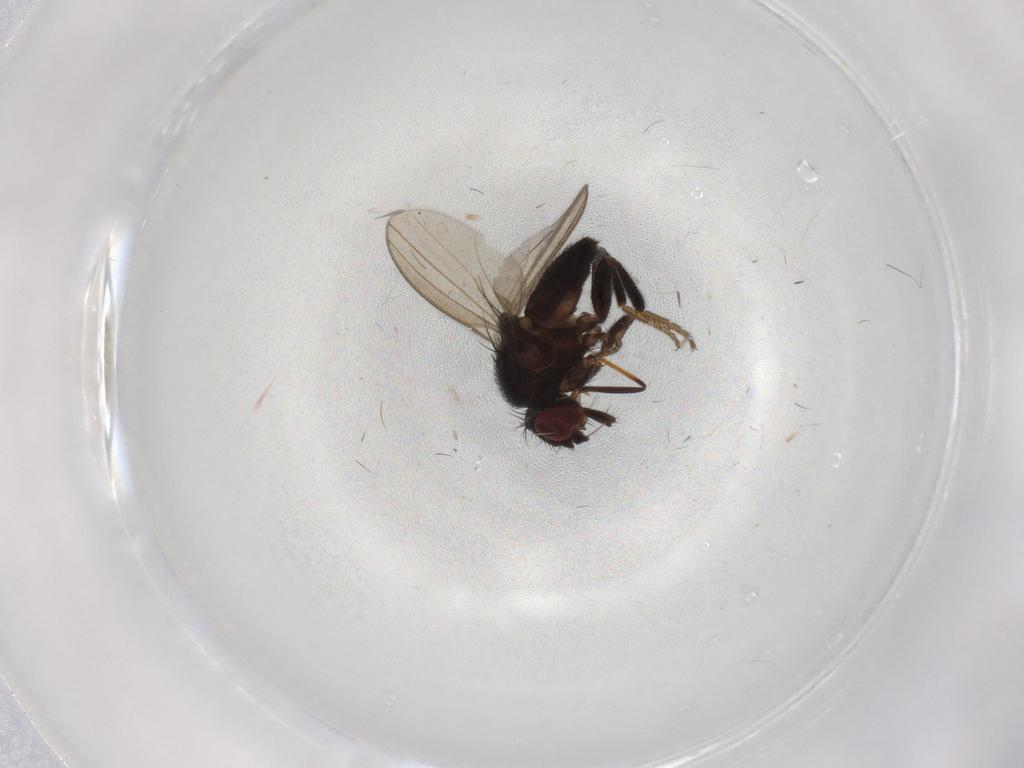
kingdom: Animalia
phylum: Arthropoda
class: Insecta
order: Diptera
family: Milichiidae
